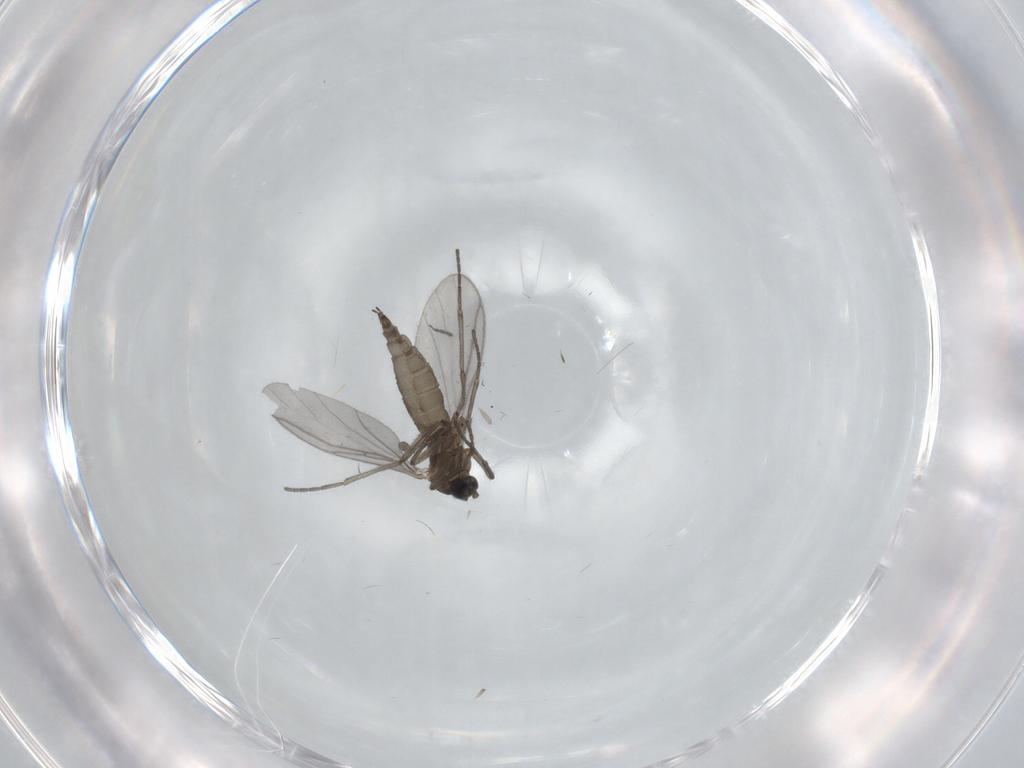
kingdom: Animalia
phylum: Arthropoda
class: Insecta
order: Diptera
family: Sciaridae
